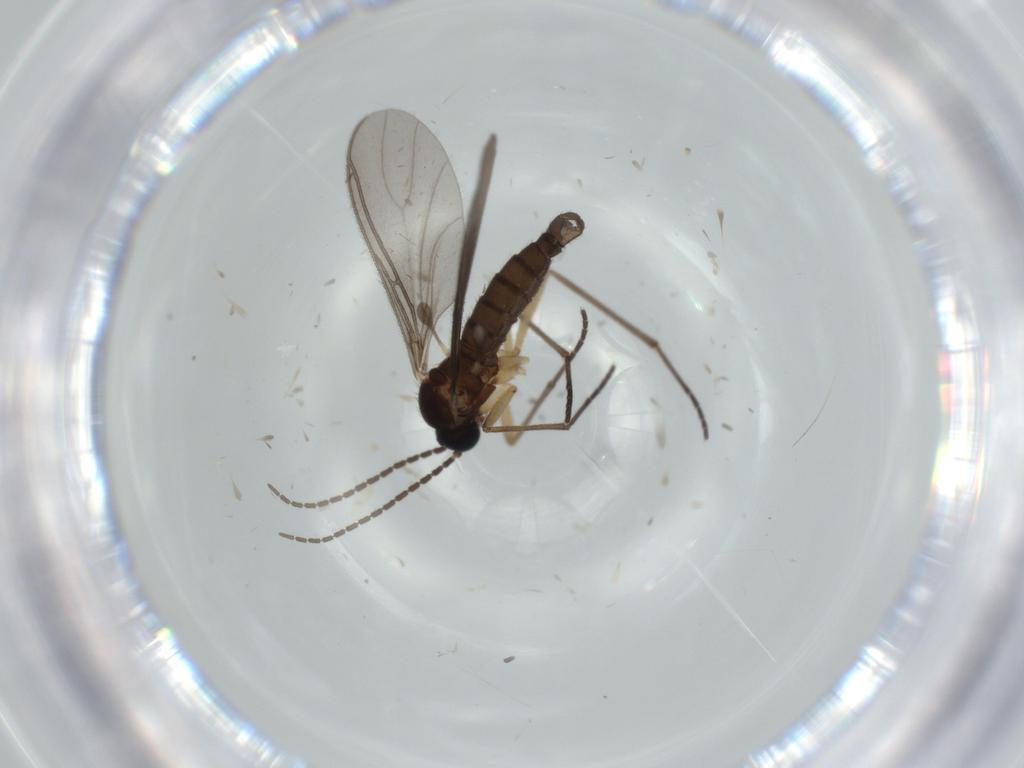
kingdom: Animalia
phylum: Arthropoda
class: Insecta
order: Diptera
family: Sciaridae
